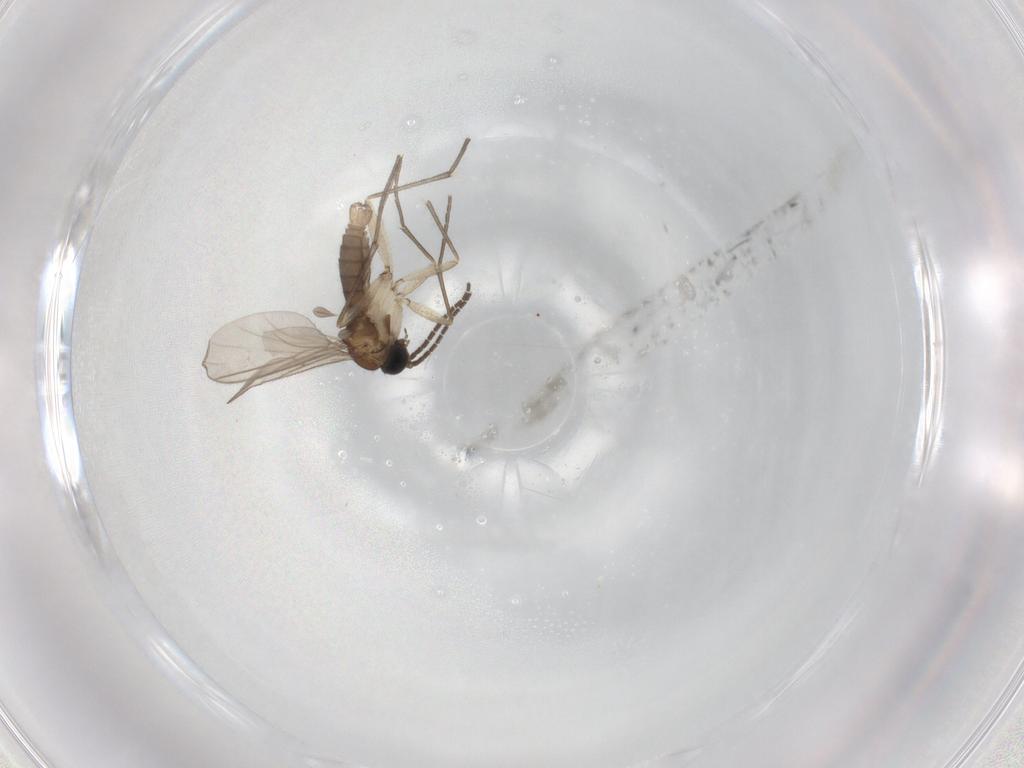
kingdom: Animalia
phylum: Arthropoda
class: Insecta
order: Diptera
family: Sciaridae
